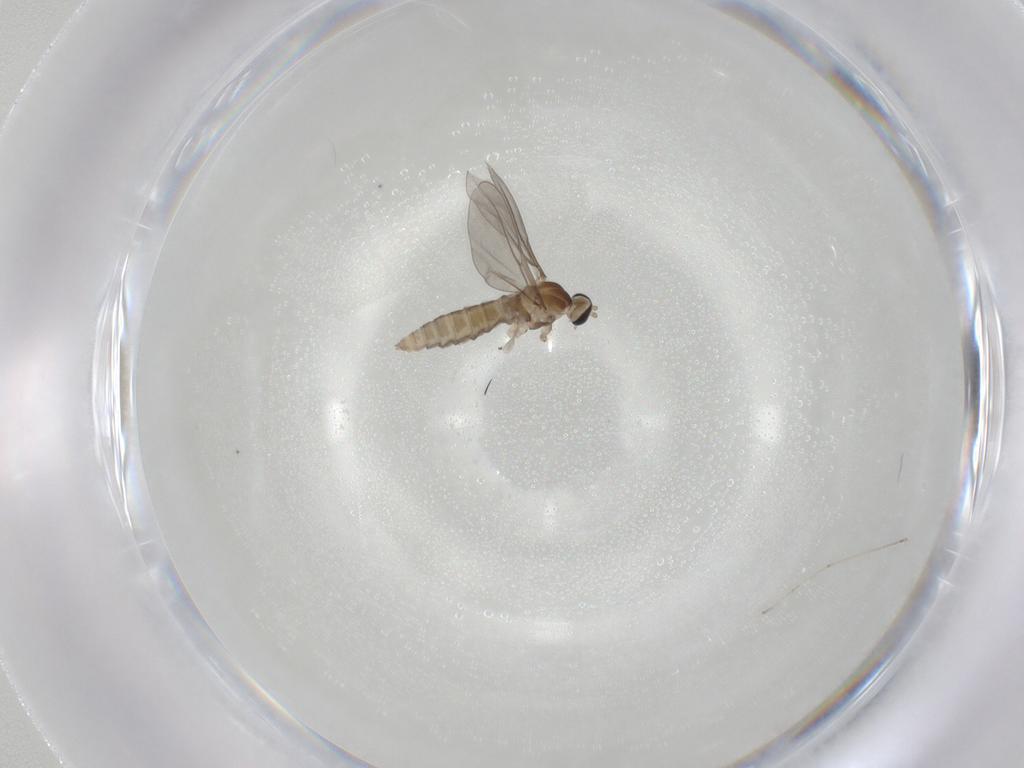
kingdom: Animalia
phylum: Arthropoda
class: Insecta
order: Diptera
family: Cecidomyiidae
